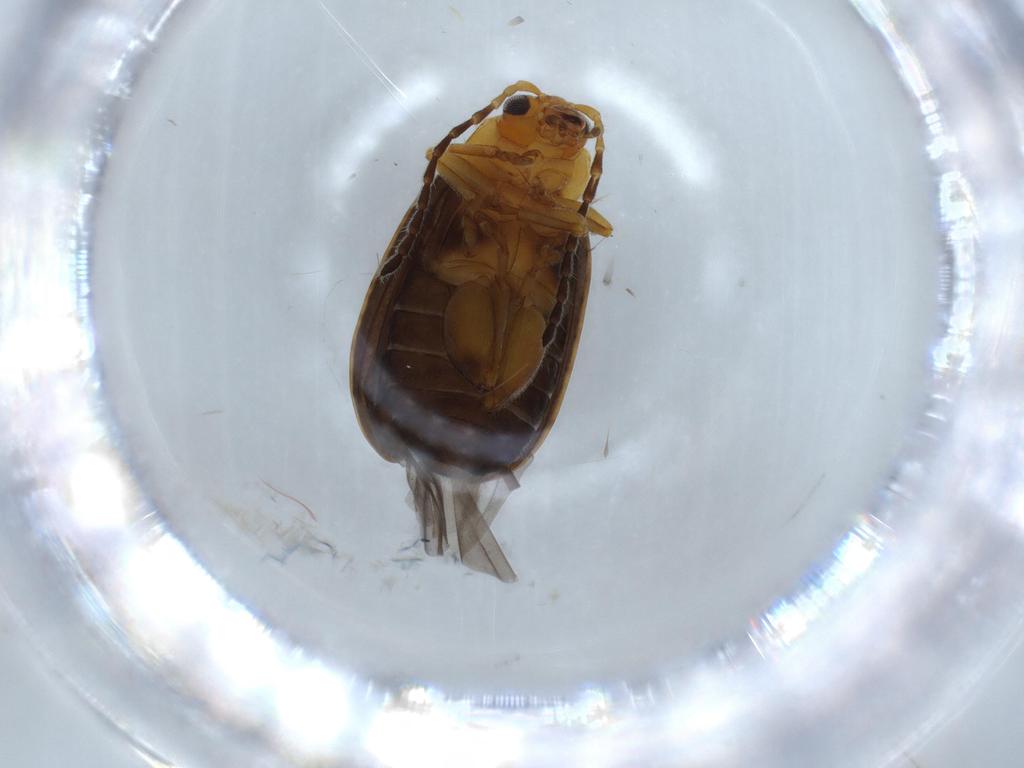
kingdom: Animalia
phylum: Arthropoda
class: Insecta
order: Coleoptera
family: Chrysomelidae
